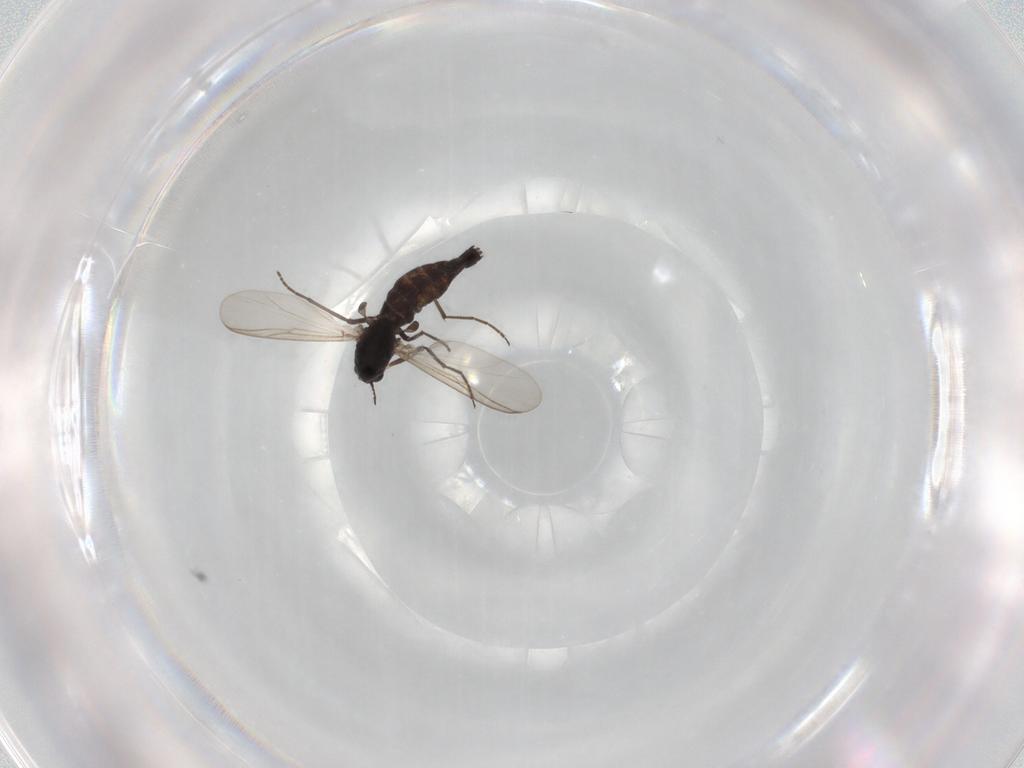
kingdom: Animalia
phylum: Arthropoda
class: Insecta
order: Diptera
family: Chironomidae
